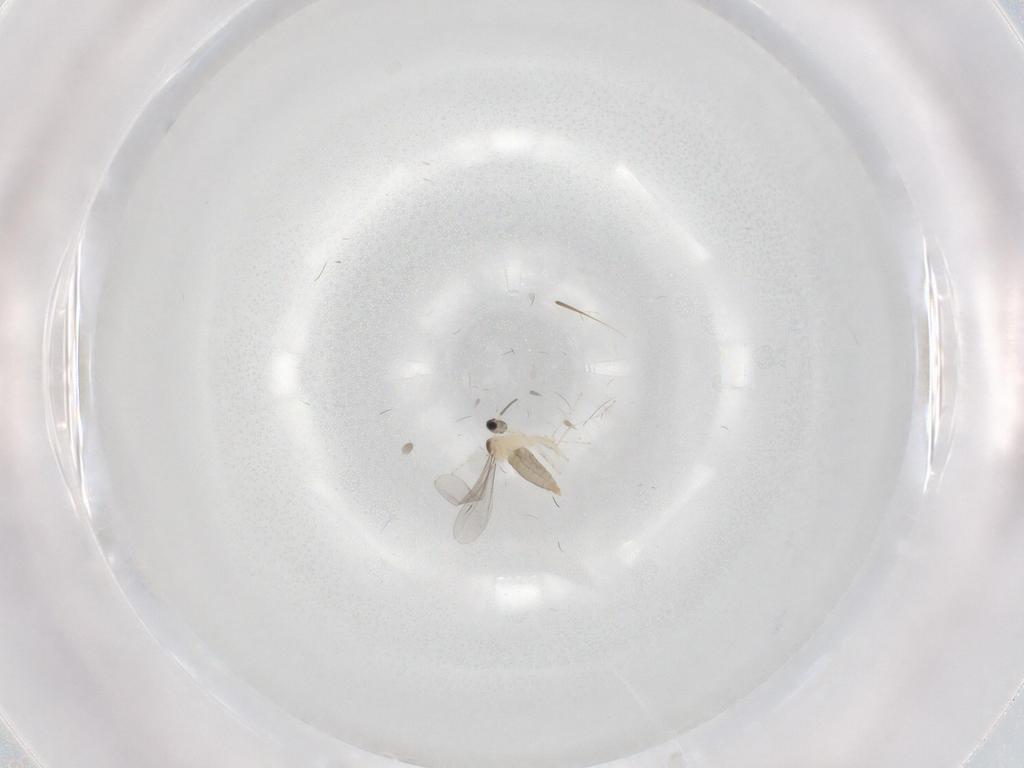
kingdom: Animalia
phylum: Arthropoda
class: Insecta
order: Diptera
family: Cecidomyiidae
